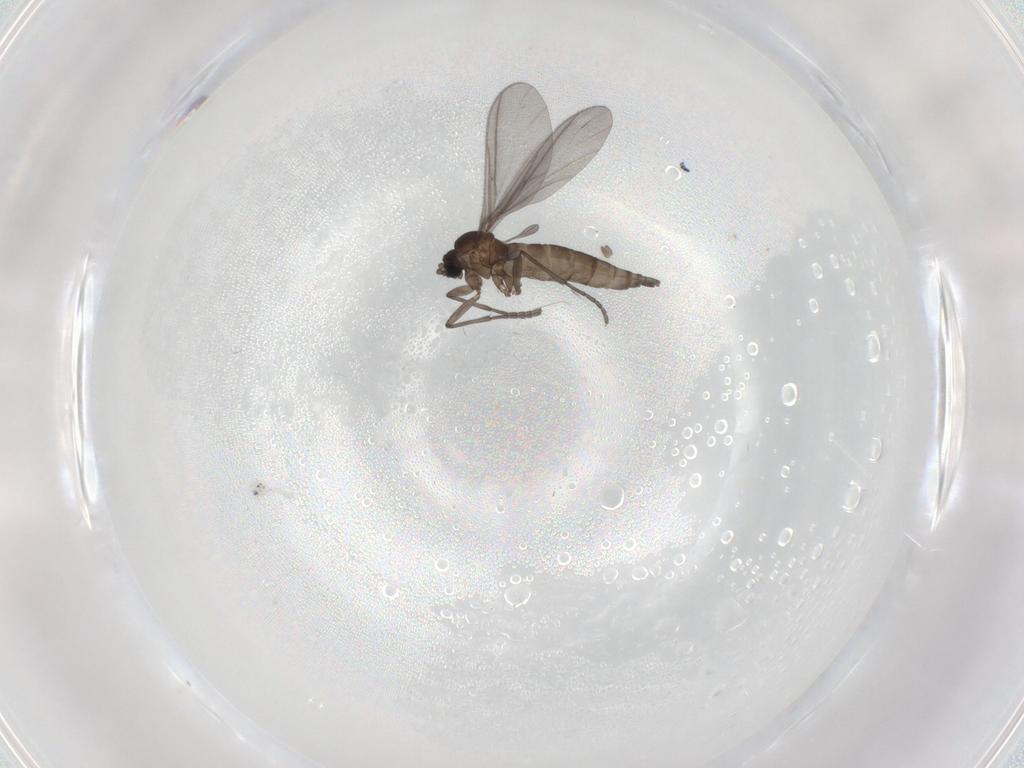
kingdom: Animalia
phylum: Arthropoda
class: Insecta
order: Diptera
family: Sciaridae
